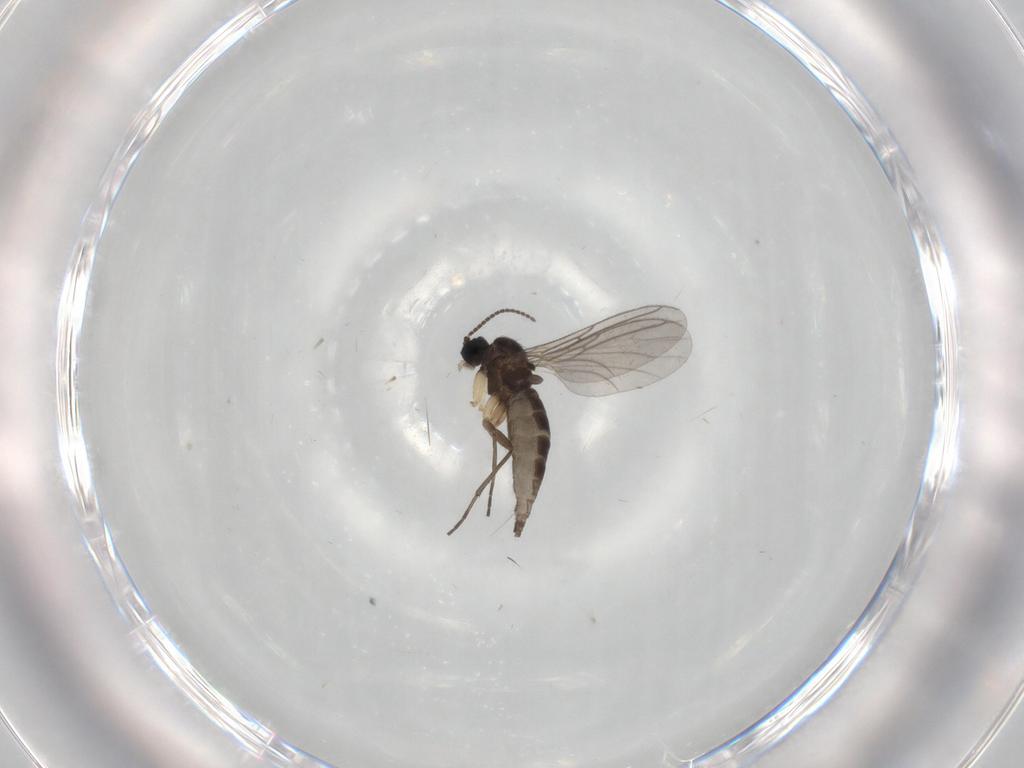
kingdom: Animalia
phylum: Arthropoda
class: Insecta
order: Diptera
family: Sciaridae
